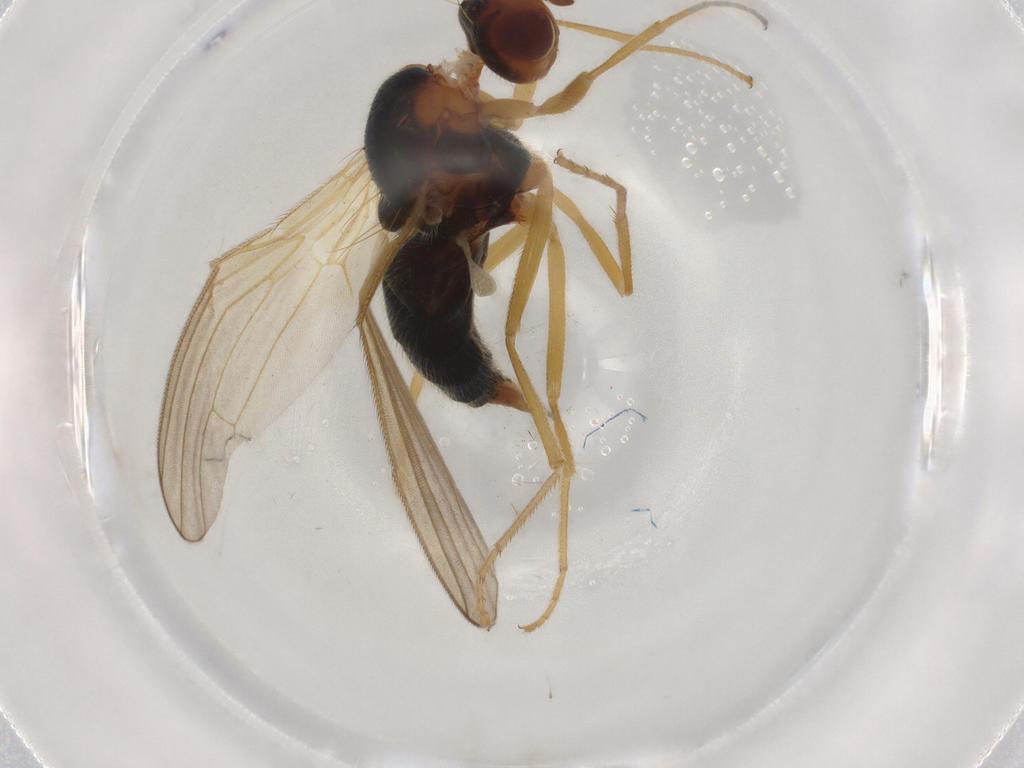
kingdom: Animalia
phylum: Arthropoda
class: Insecta
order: Diptera
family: Psilidae
